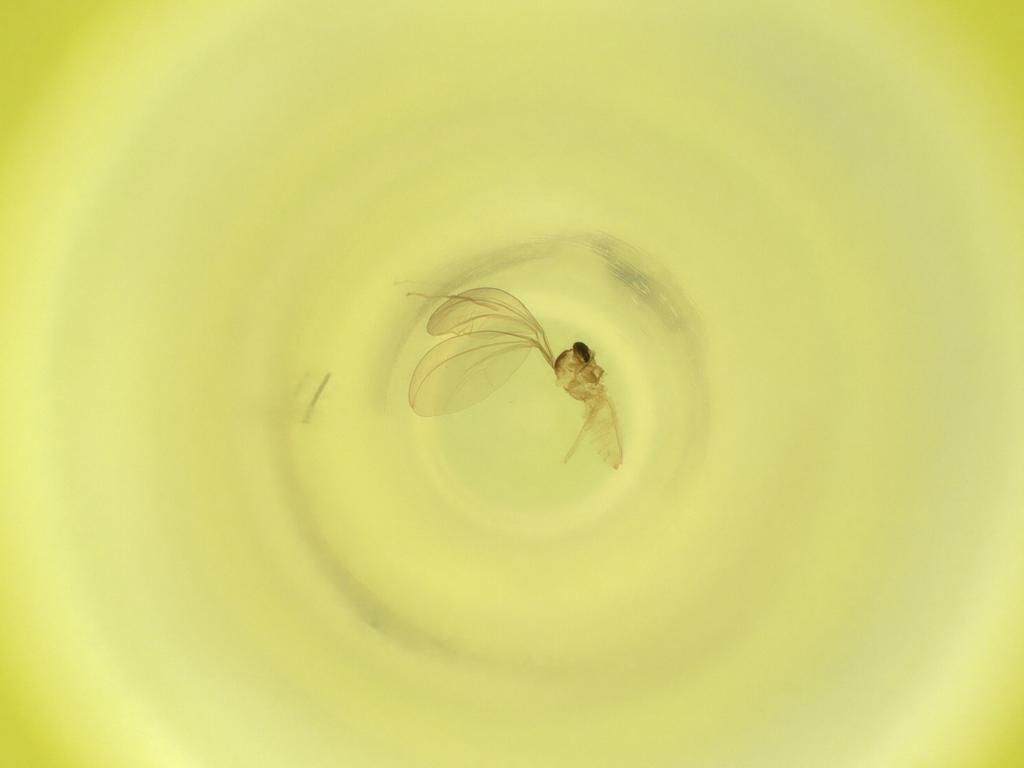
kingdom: Animalia
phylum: Arthropoda
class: Insecta
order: Diptera
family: Cecidomyiidae
